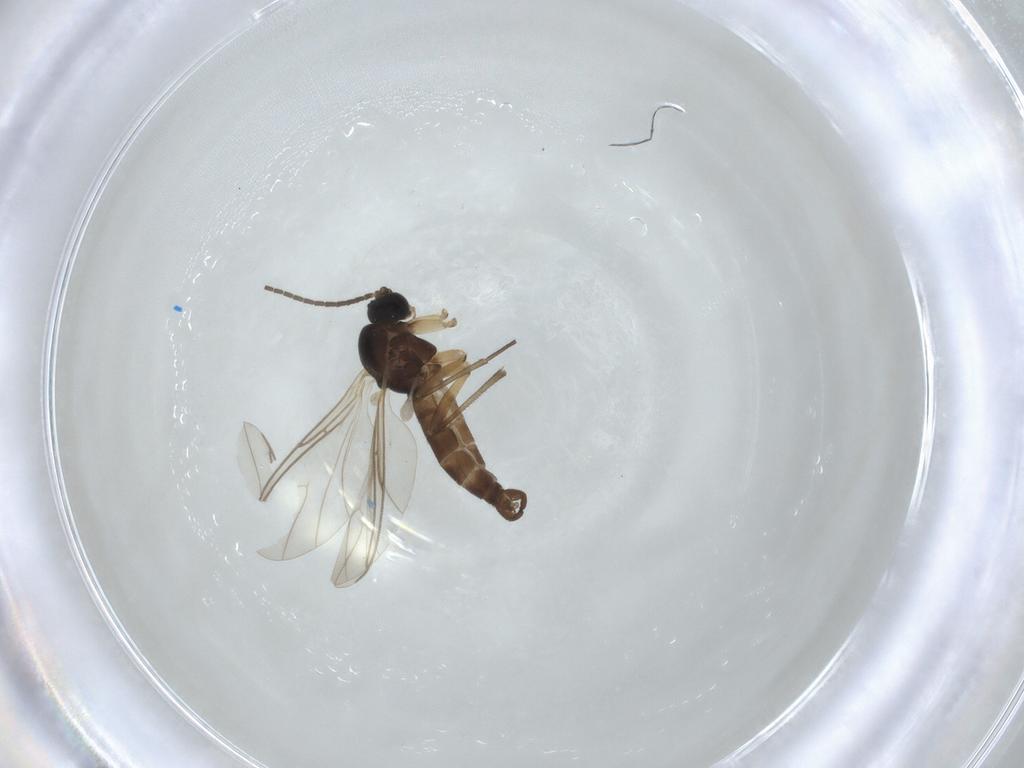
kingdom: Animalia
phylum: Arthropoda
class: Insecta
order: Diptera
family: Sciaridae
